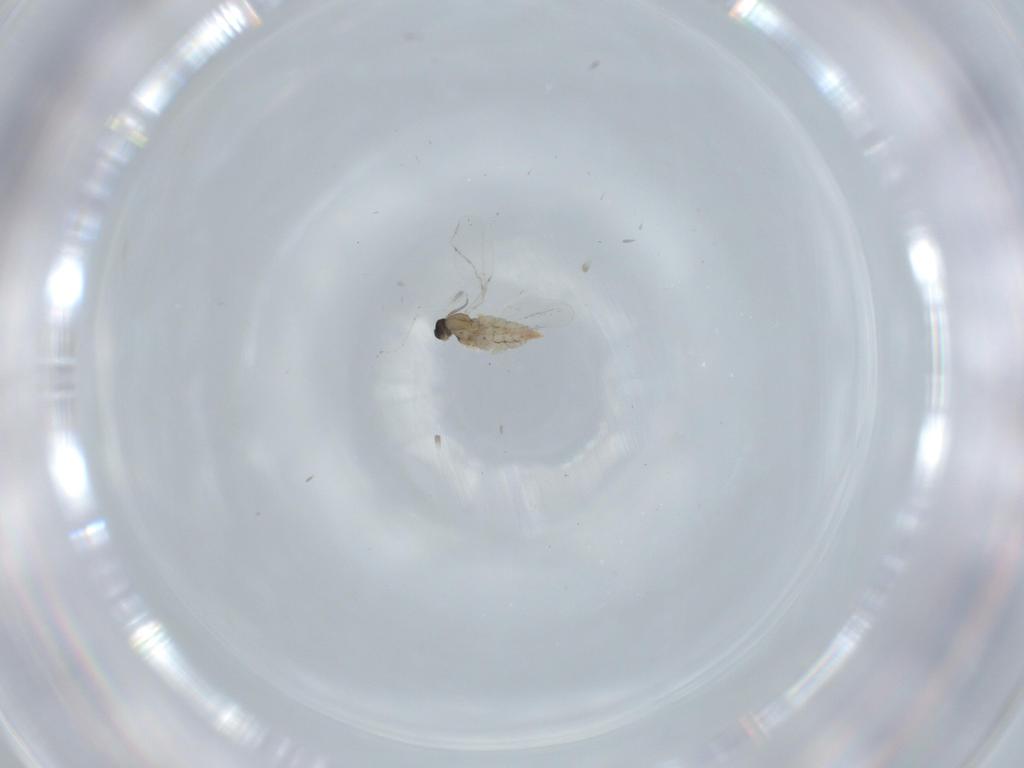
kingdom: Animalia
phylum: Arthropoda
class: Insecta
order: Diptera
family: Cecidomyiidae
